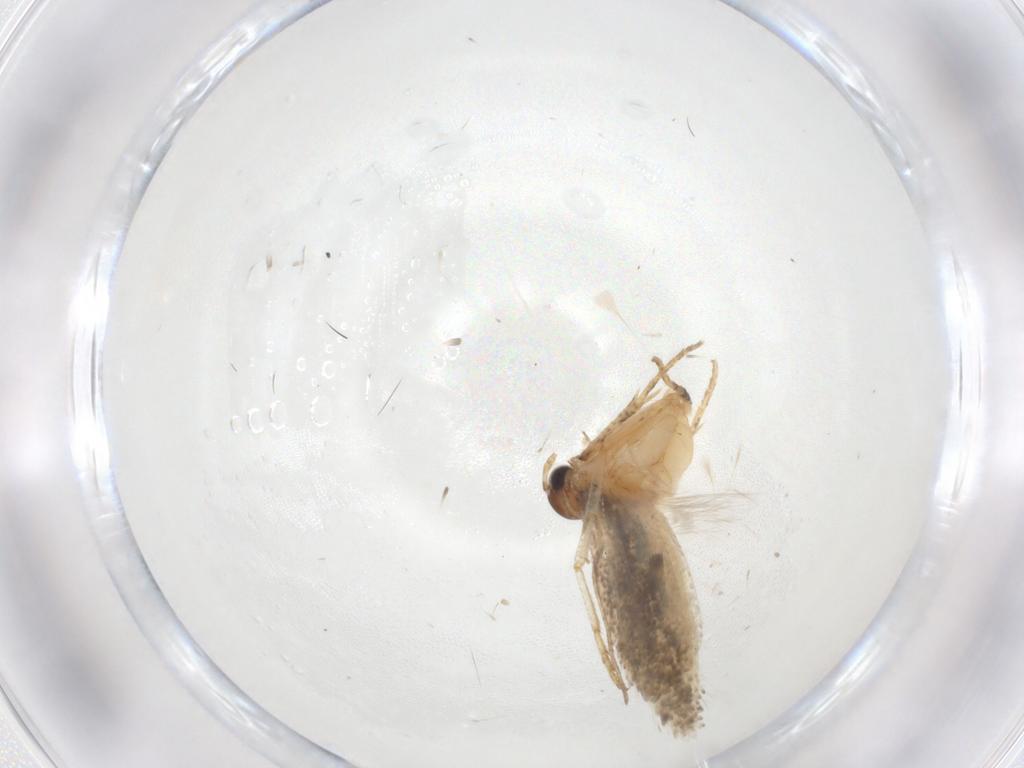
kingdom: Animalia
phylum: Arthropoda
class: Insecta
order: Lepidoptera
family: Gelechiidae
